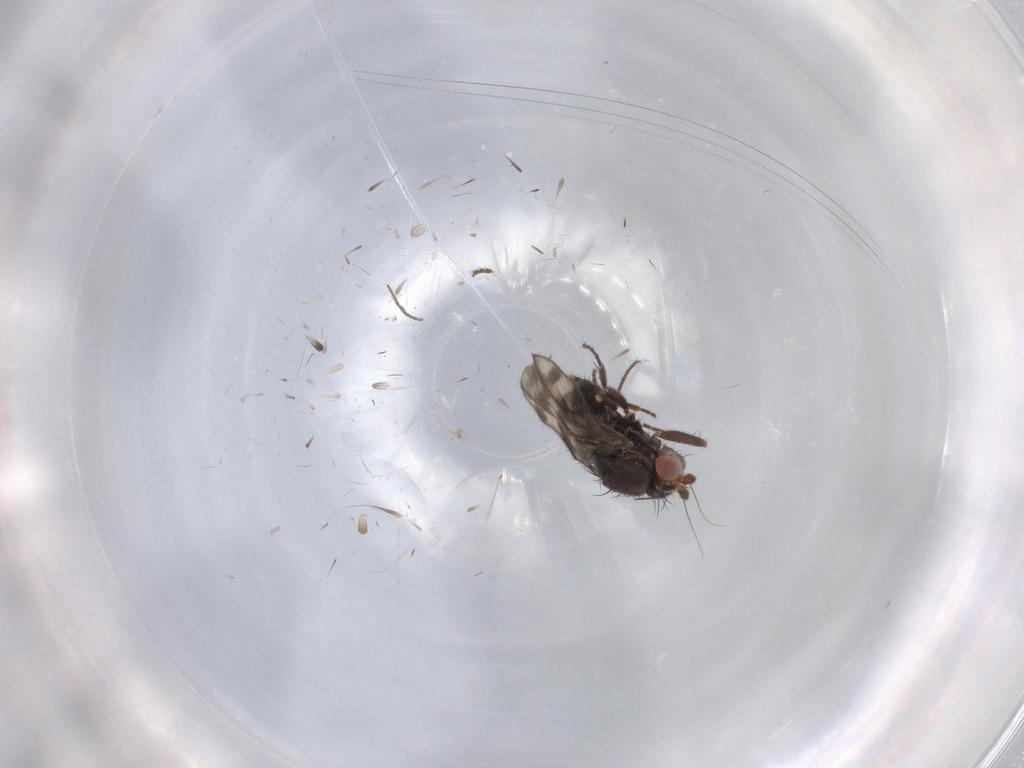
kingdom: Animalia
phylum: Arthropoda
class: Insecta
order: Diptera
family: Sphaeroceridae
